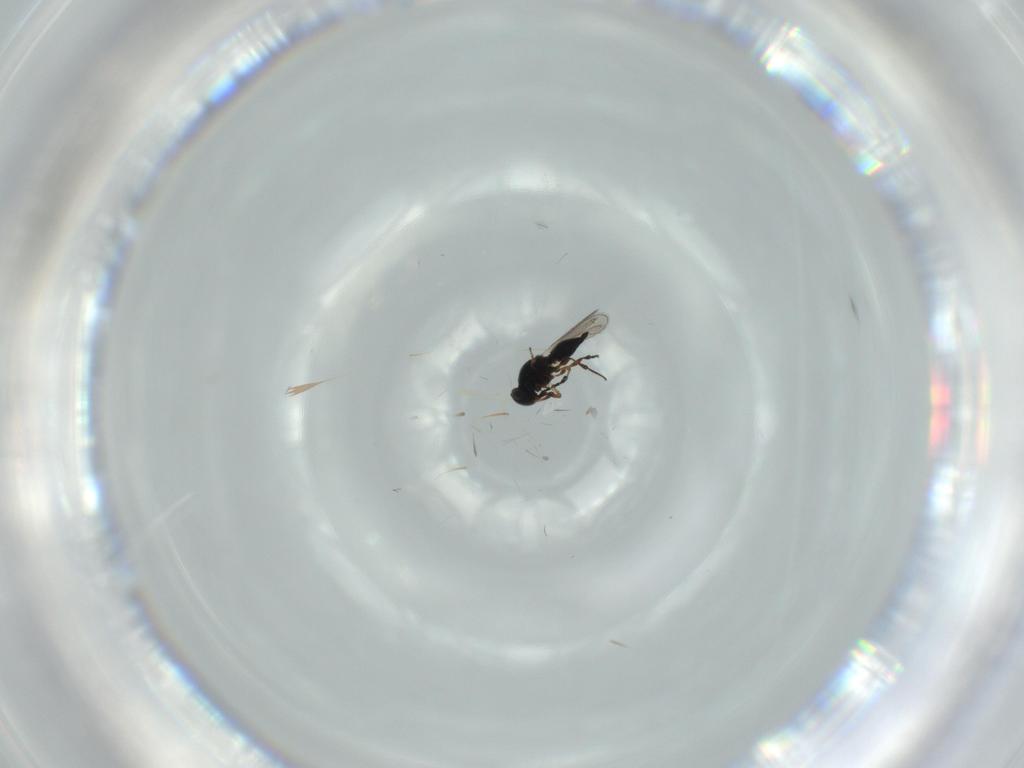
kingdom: Animalia
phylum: Arthropoda
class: Insecta
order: Hymenoptera
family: Platygastridae
